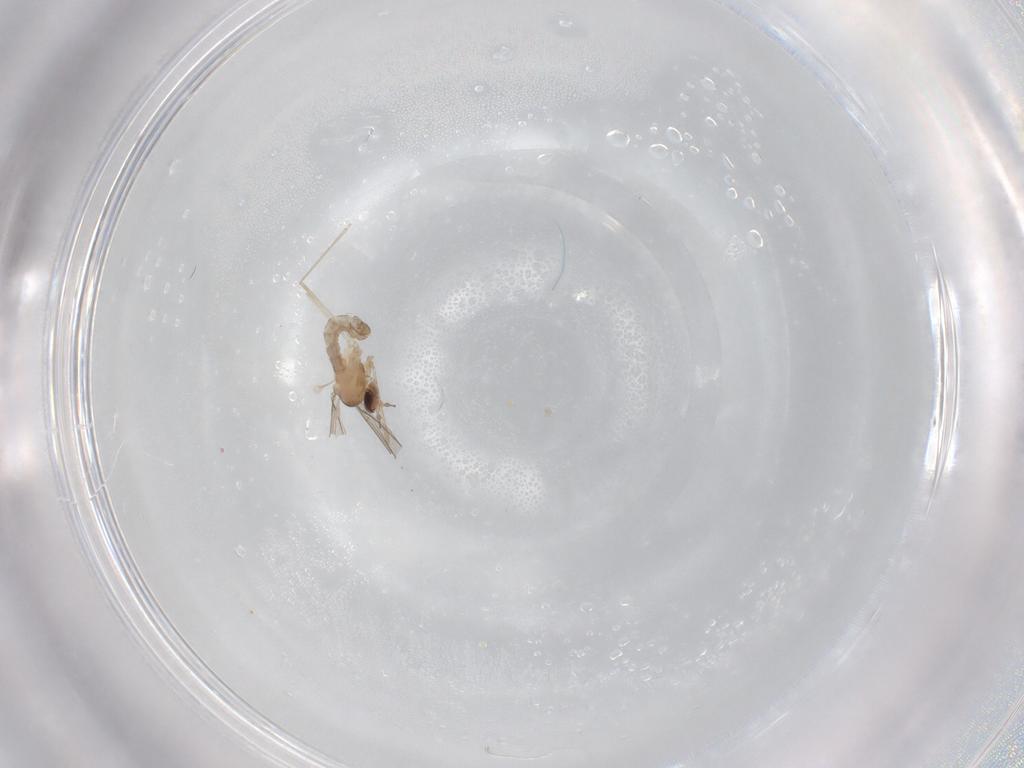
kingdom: Animalia
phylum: Arthropoda
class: Insecta
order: Diptera
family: Cecidomyiidae
